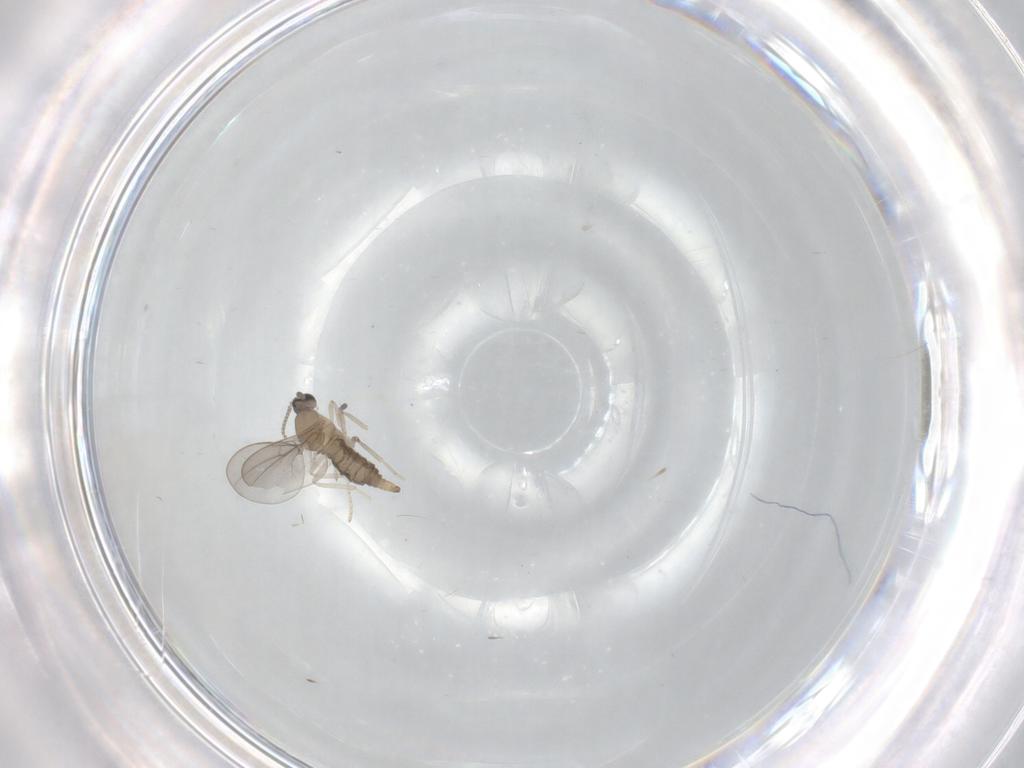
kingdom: Animalia
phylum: Arthropoda
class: Insecta
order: Diptera
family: Cecidomyiidae
